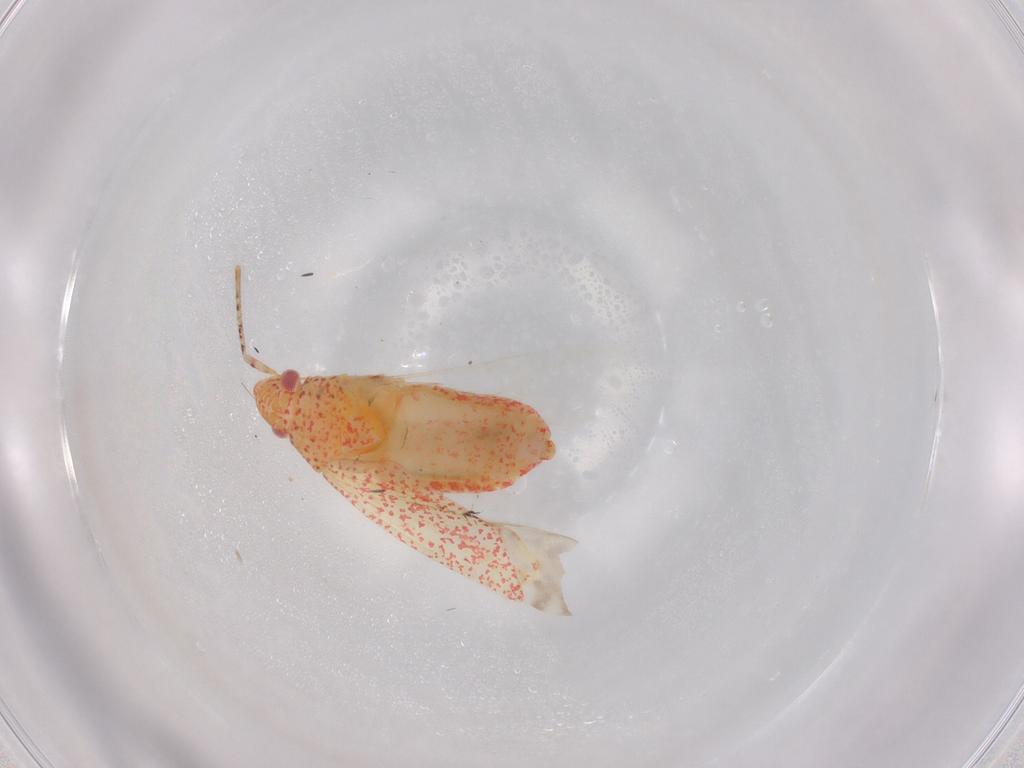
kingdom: Animalia
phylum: Arthropoda
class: Insecta
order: Hemiptera
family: Miridae
